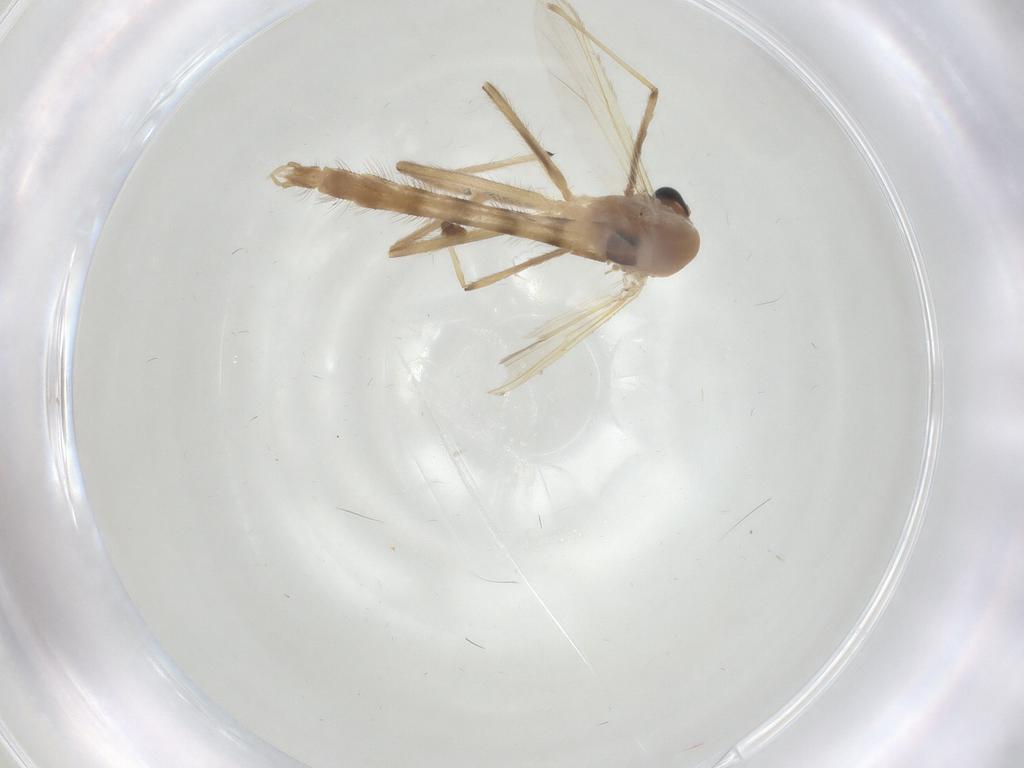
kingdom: Animalia
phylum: Arthropoda
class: Insecta
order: Diptera
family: Chironomidae
